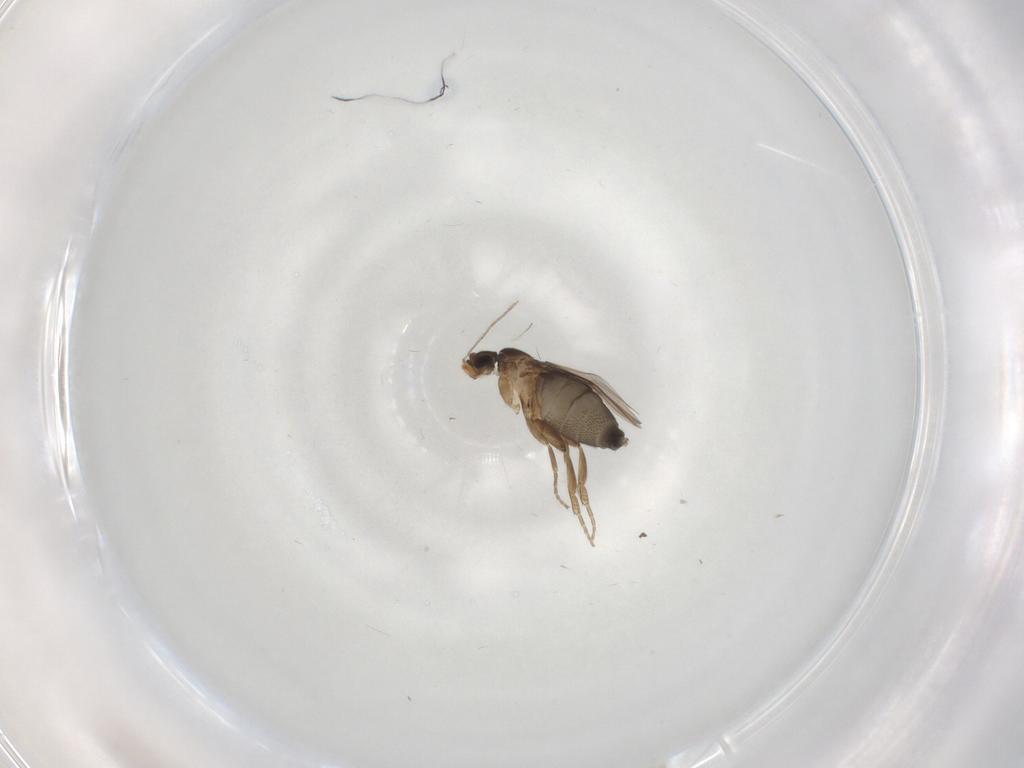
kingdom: Animalia
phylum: Arthropoda
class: Insecta
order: Diptera
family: Phoridae
